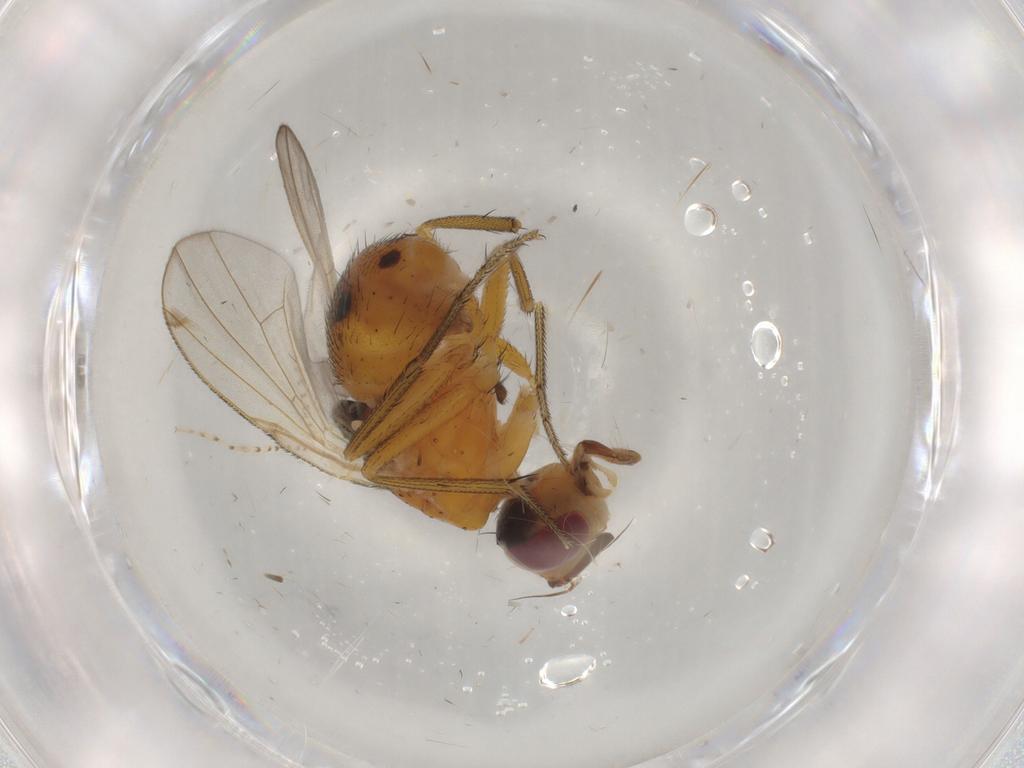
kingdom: Animalia
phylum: Arthropoda
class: Insecta
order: Diptera
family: Muscidae
